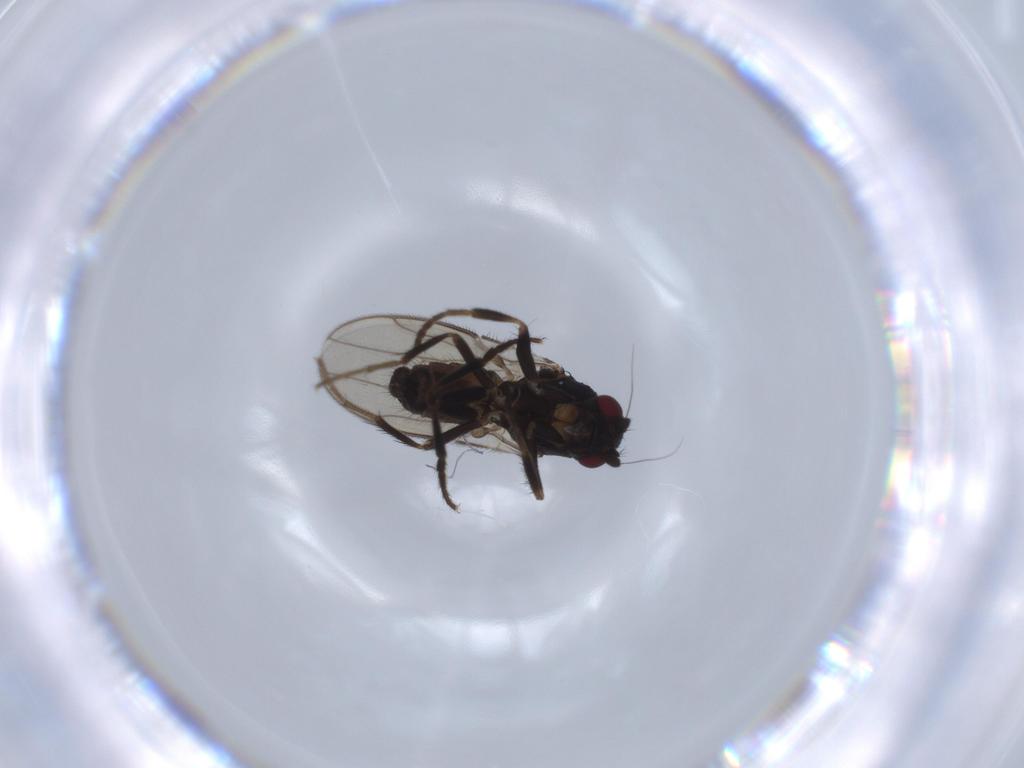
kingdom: Animalia
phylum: Arthropoda
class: Insecta
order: Diptera
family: Sphaeroceridae
